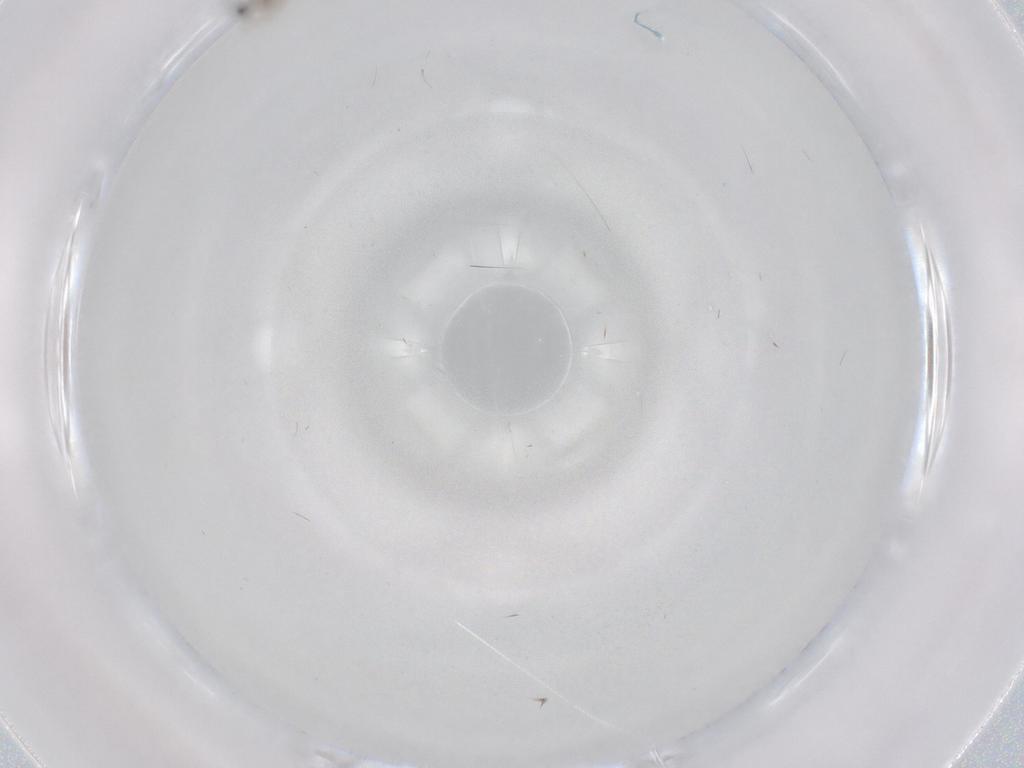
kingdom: Animalia
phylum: Arthropoda
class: Insecta
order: Diptera
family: Cecidomyiidae
